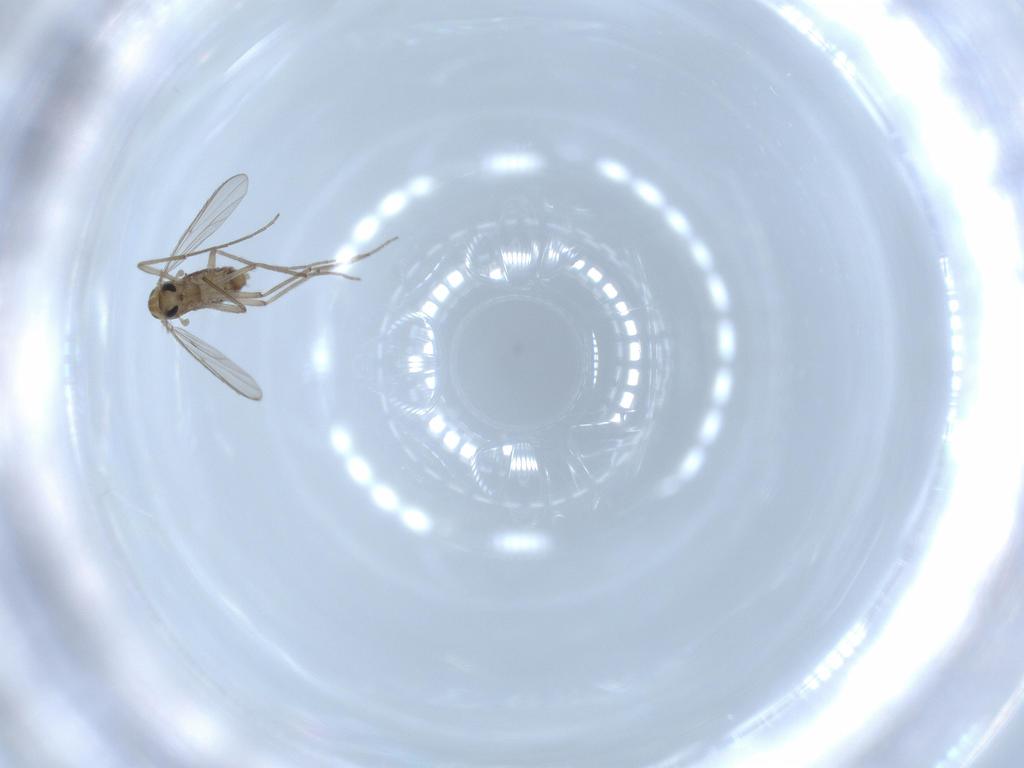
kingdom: Animalia
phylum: Arthropoda
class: Insecta
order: Diptera
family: Chironomidae
